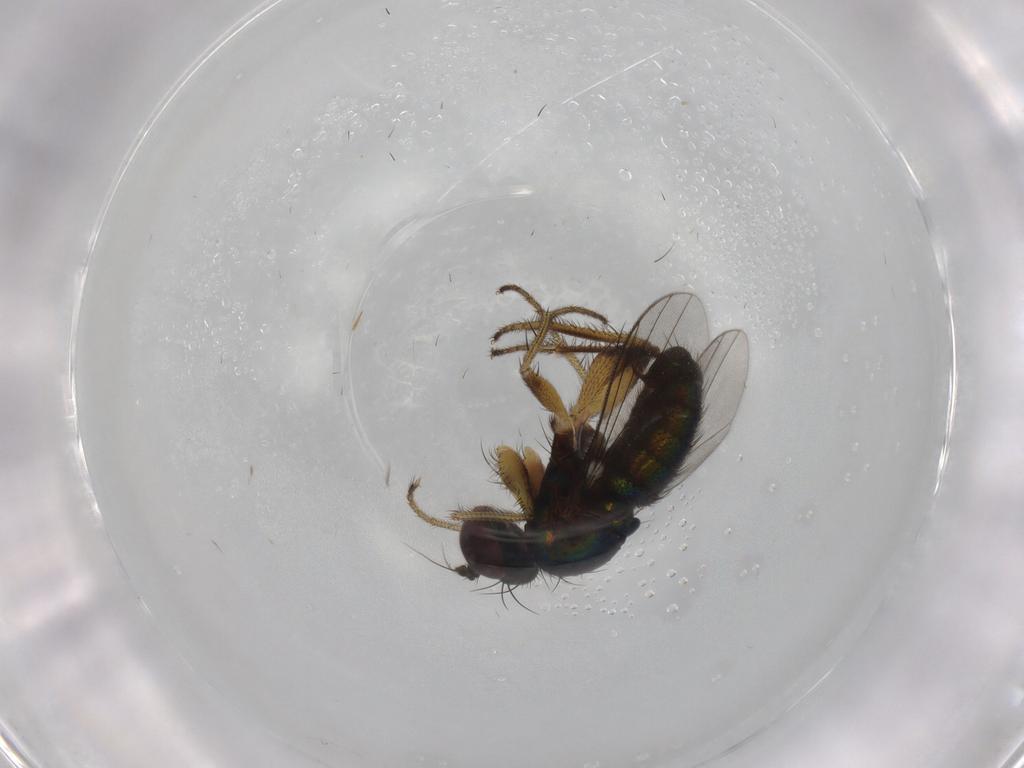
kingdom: Animalia
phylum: Arthropoda
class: Insecta
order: Diptera
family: Dolichopodidae
